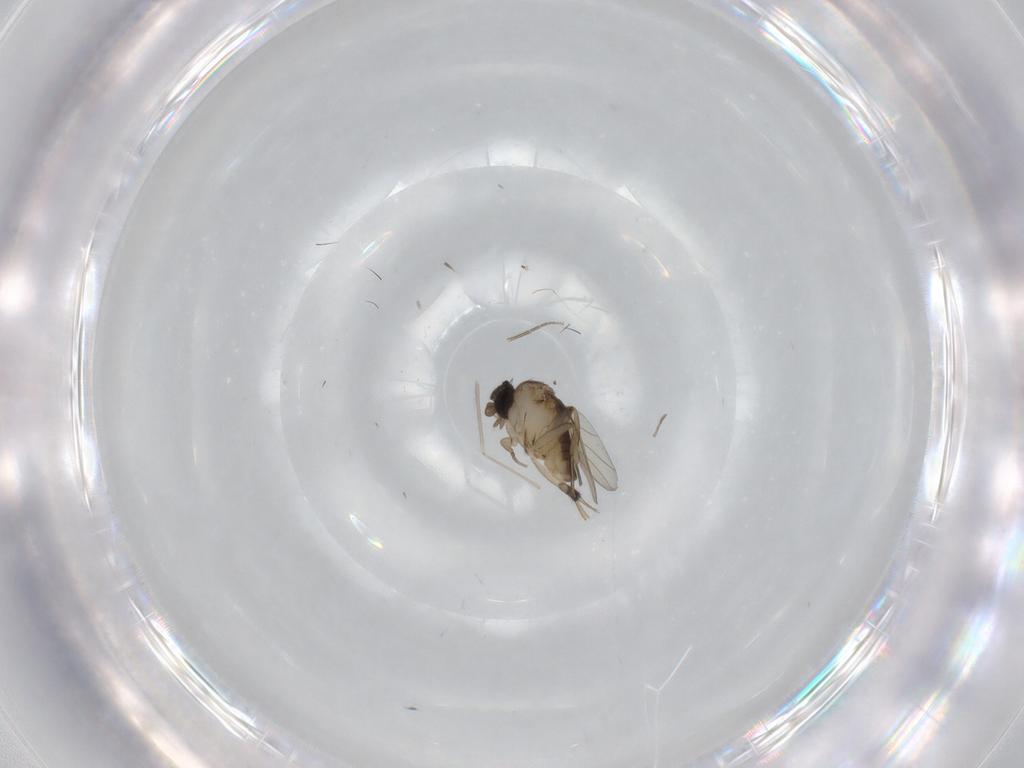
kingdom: Animalia
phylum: Arthropoda
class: Insecta
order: Diptera
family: Phoridae
